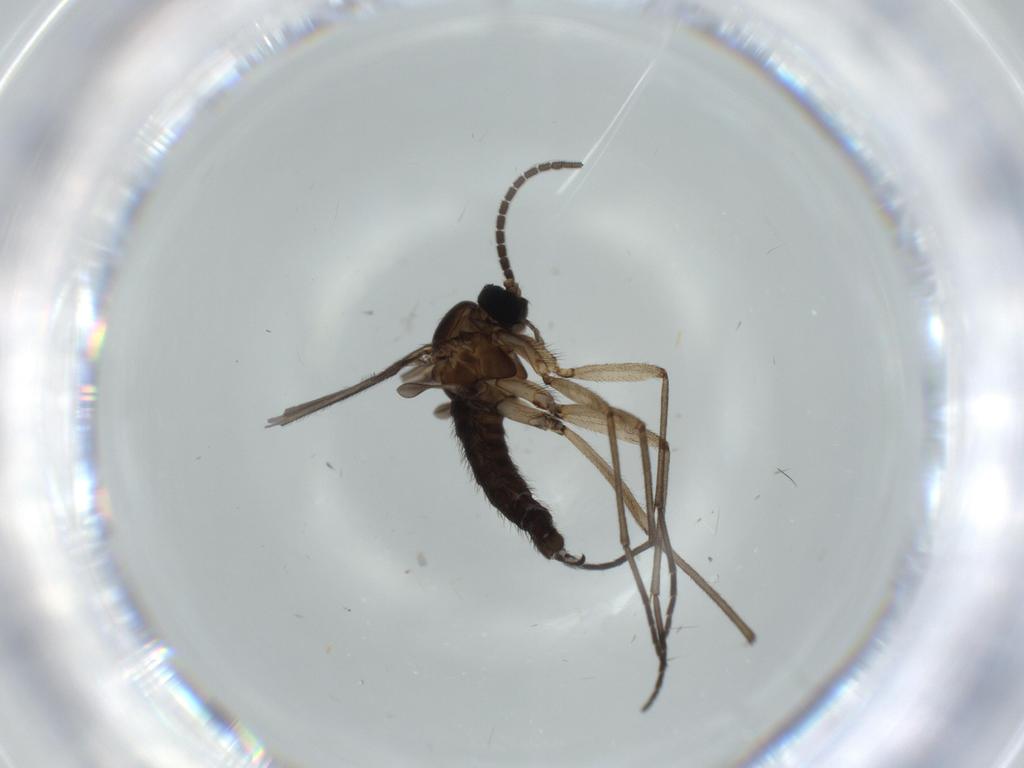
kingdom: Animalia
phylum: Arthropoda
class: Insecta
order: Diptera
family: Sciaridae
